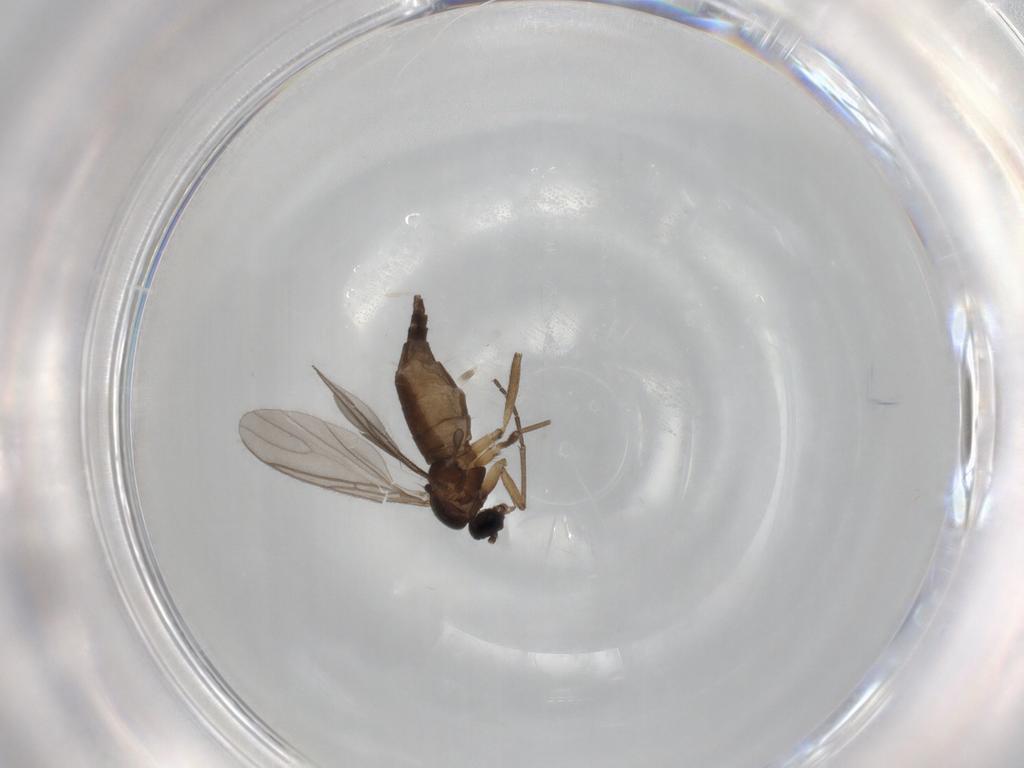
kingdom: Animalia
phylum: Arthropoda
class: Insecta
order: Diptera
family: Sciaridae
